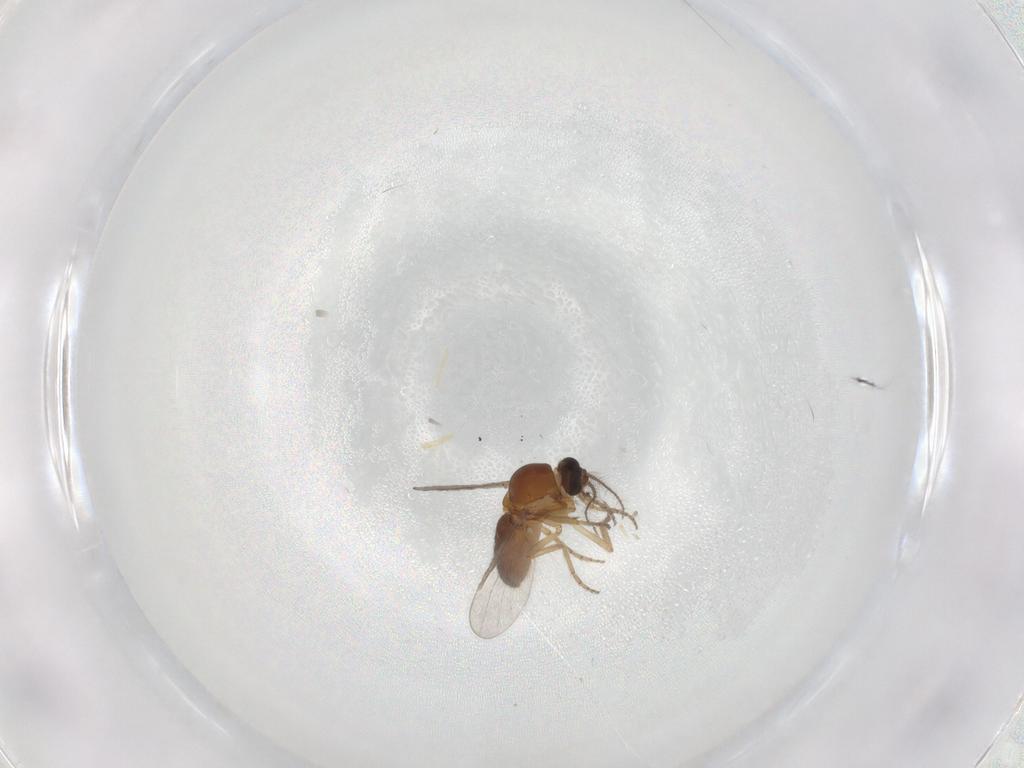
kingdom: Animalia
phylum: Arthropoda
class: Insecta
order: Diptera
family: Ceratopogonidae
